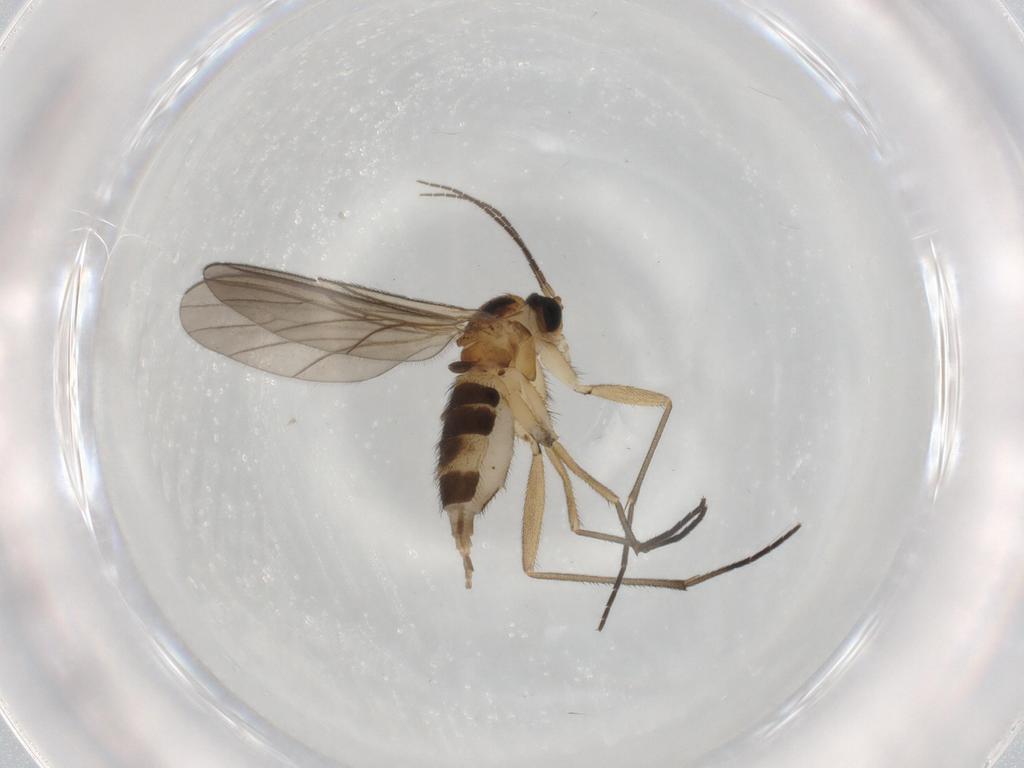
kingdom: Animalia
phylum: Arthropoda
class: Insecta
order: Diptera
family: Sciaridae
